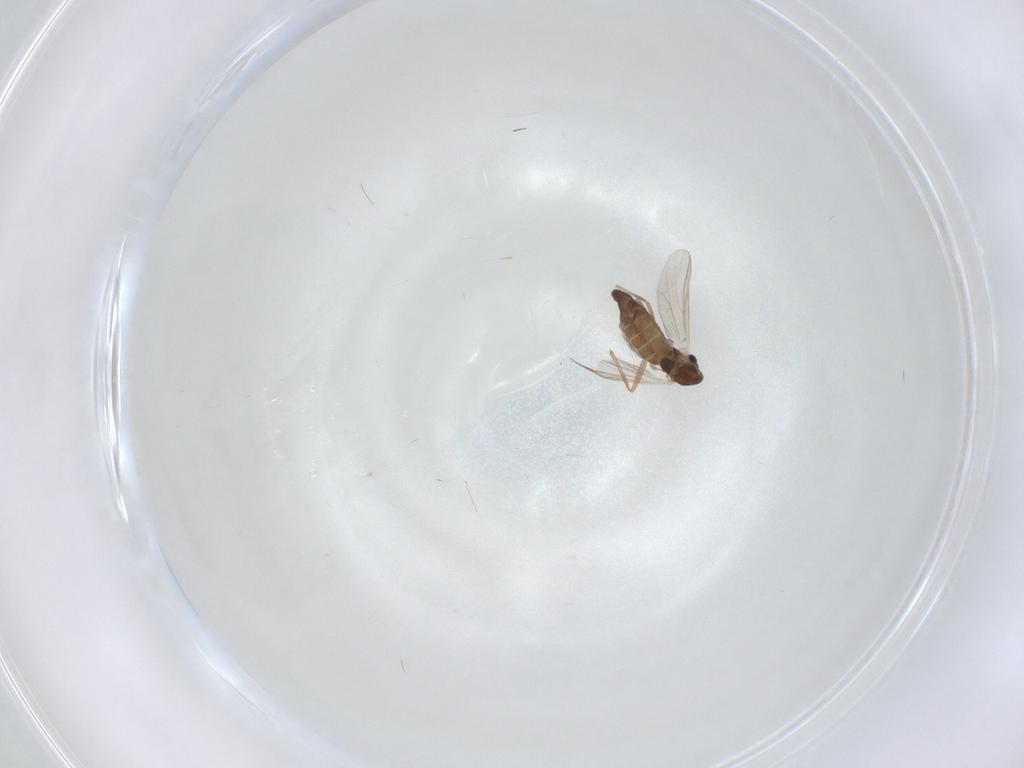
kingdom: Animalia
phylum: Arthropoda
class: Insecta
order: Diptera
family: Chironomidae
